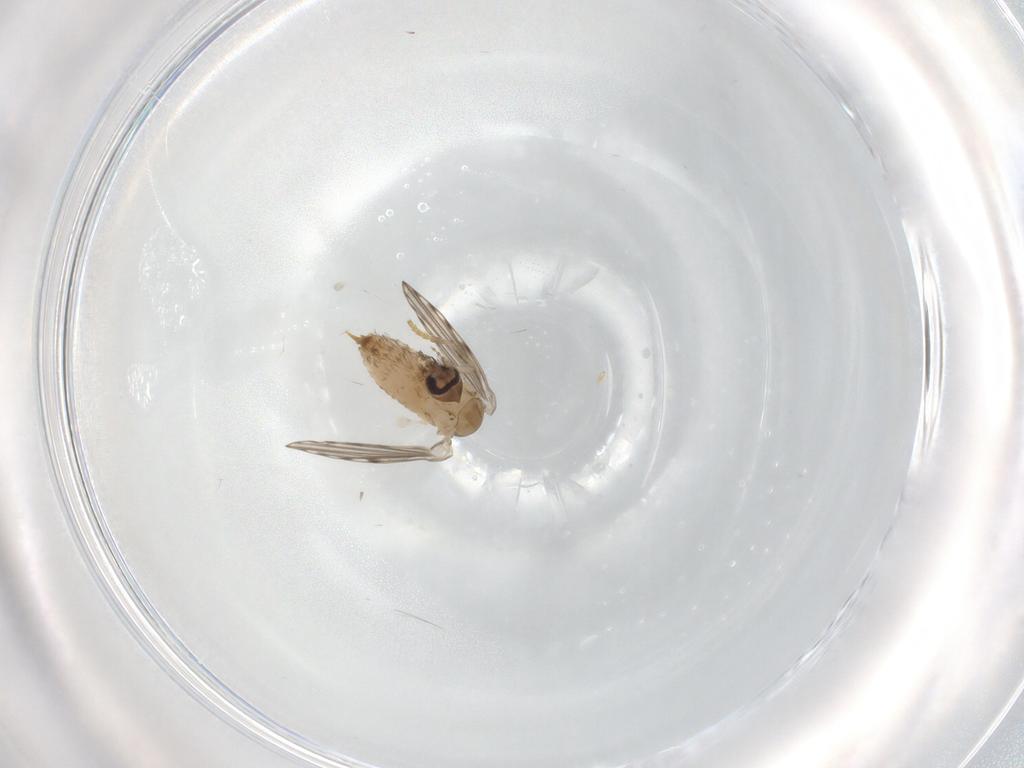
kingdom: Animalia
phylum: Arthropoda
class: Insecta
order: Diptera
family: Psychodidae
